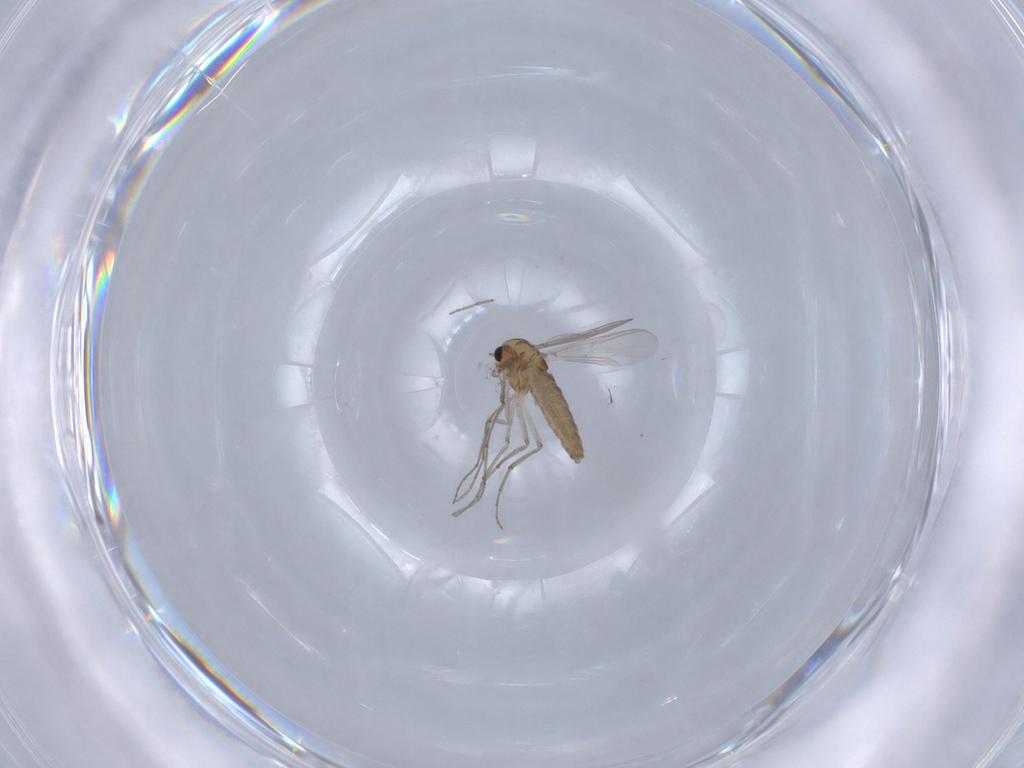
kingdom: Animalia
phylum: Arthropoda
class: Insecta
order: Diptera
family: Chironomidae
